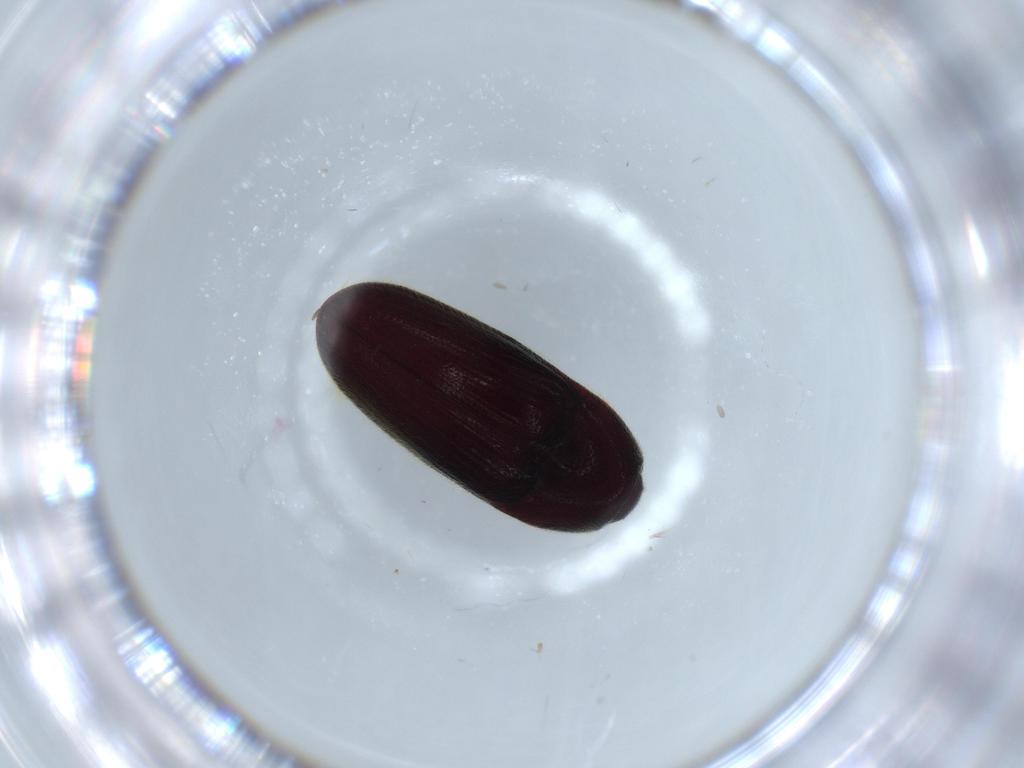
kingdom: Animalia
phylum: Arthropoda
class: Insecta
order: Coleoptera
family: Throscidae
